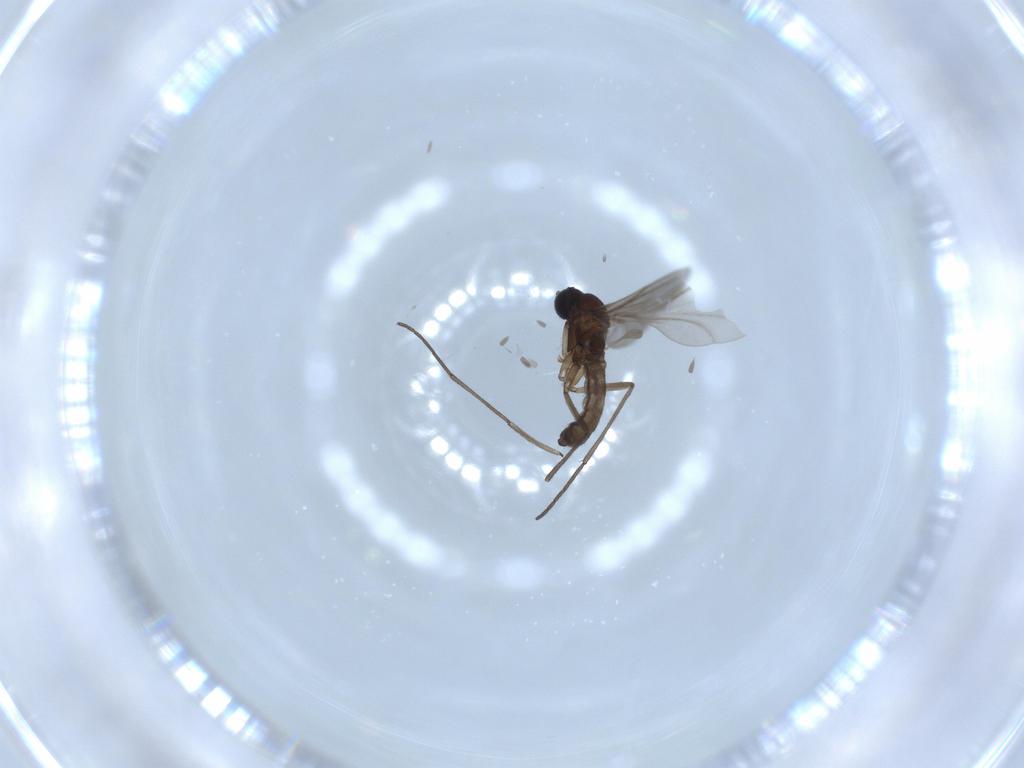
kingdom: Animalia
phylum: Arthropoda
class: Insecta
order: Diptera
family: Sciaridae
